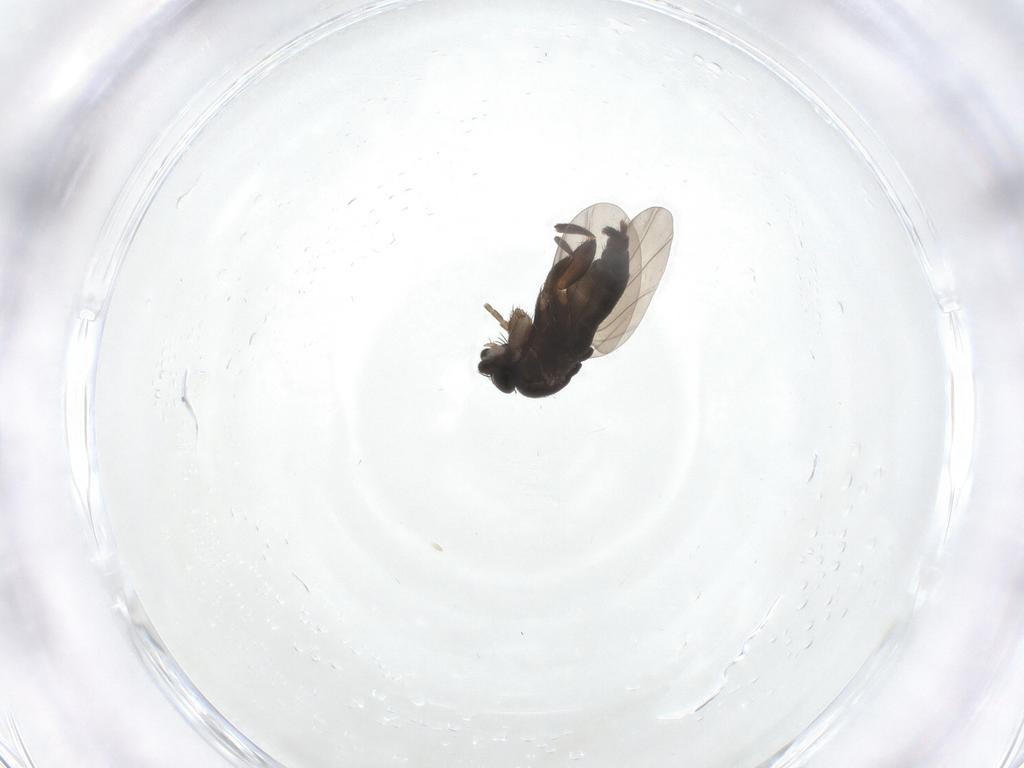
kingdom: Animalia
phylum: Arthropoda
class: Insecta
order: Diptera
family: Phoridae
